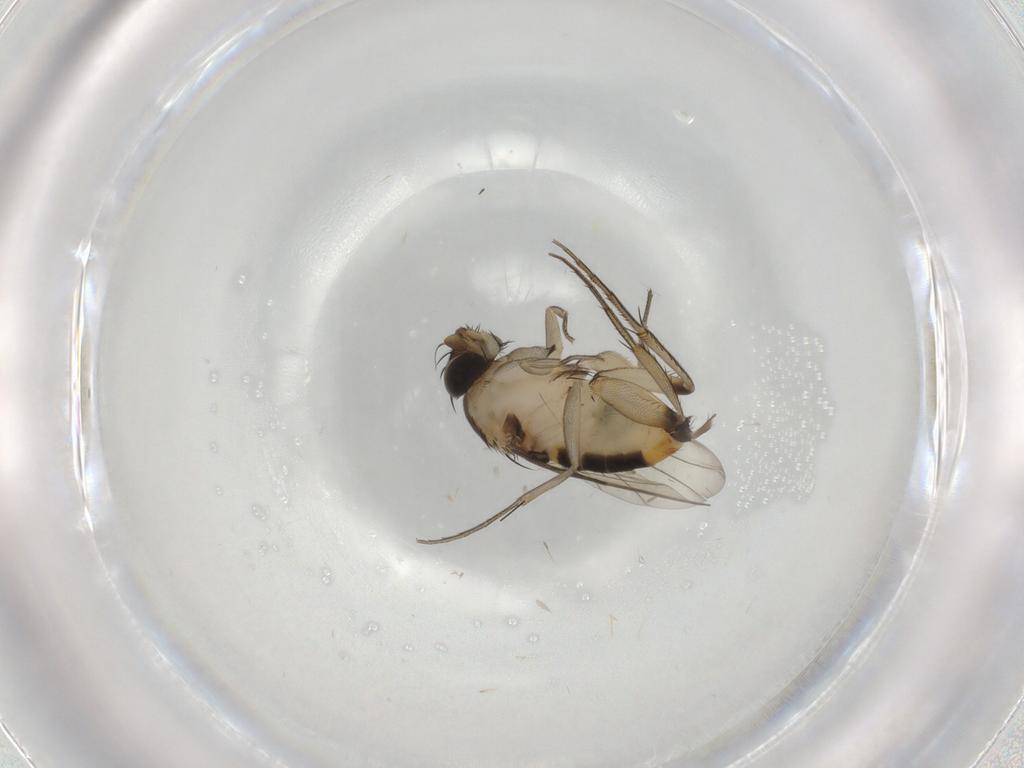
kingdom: Animalia
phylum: Arthropoda
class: Insecta
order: Diptera
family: Phoridae
